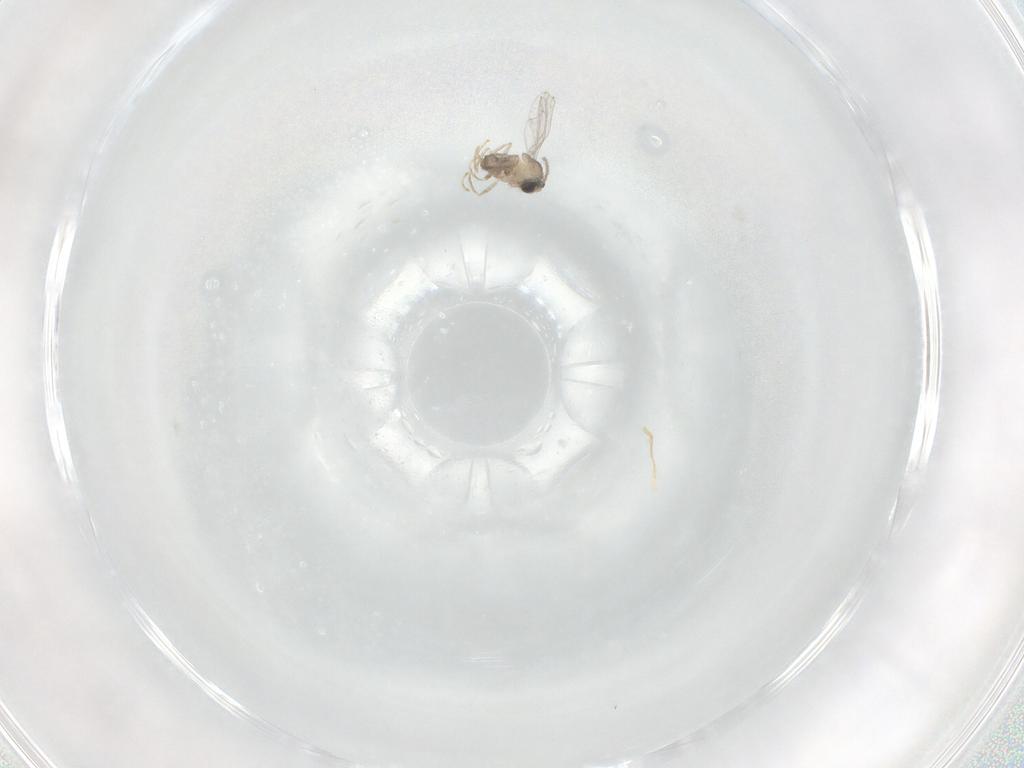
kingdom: Animalia
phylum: Arthropoda
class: Insecta
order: Diptera
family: Cecidomyiidae
